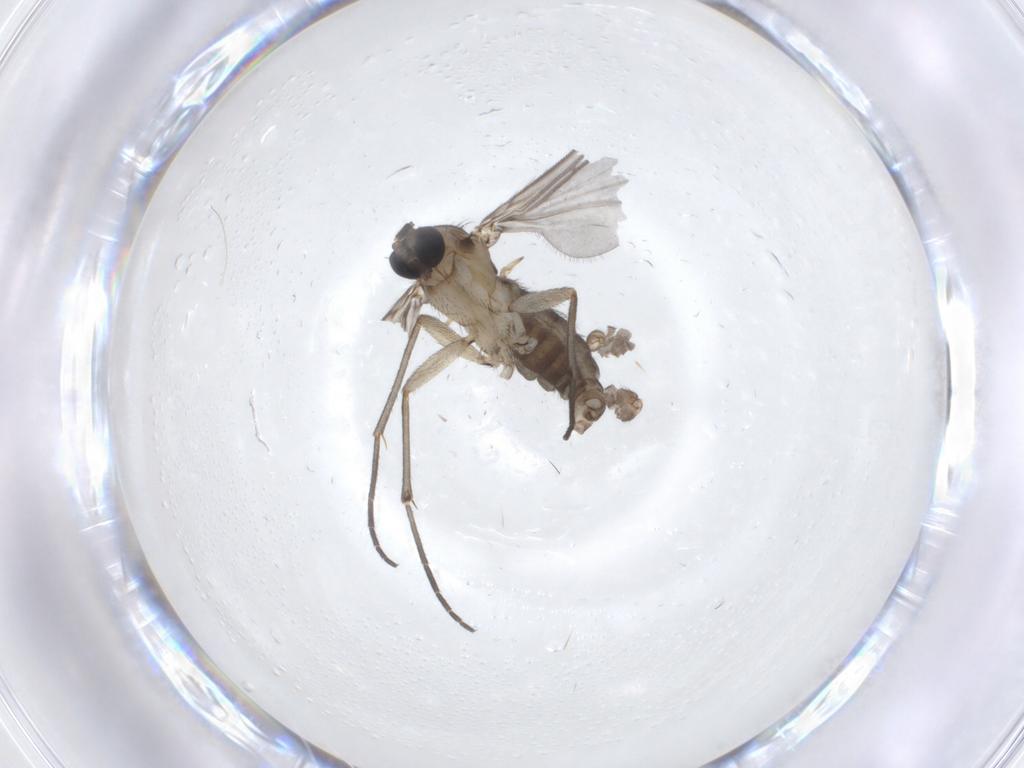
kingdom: Animalia
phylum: Arthropoda
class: Insecta
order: Diptera
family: Sciaridae
